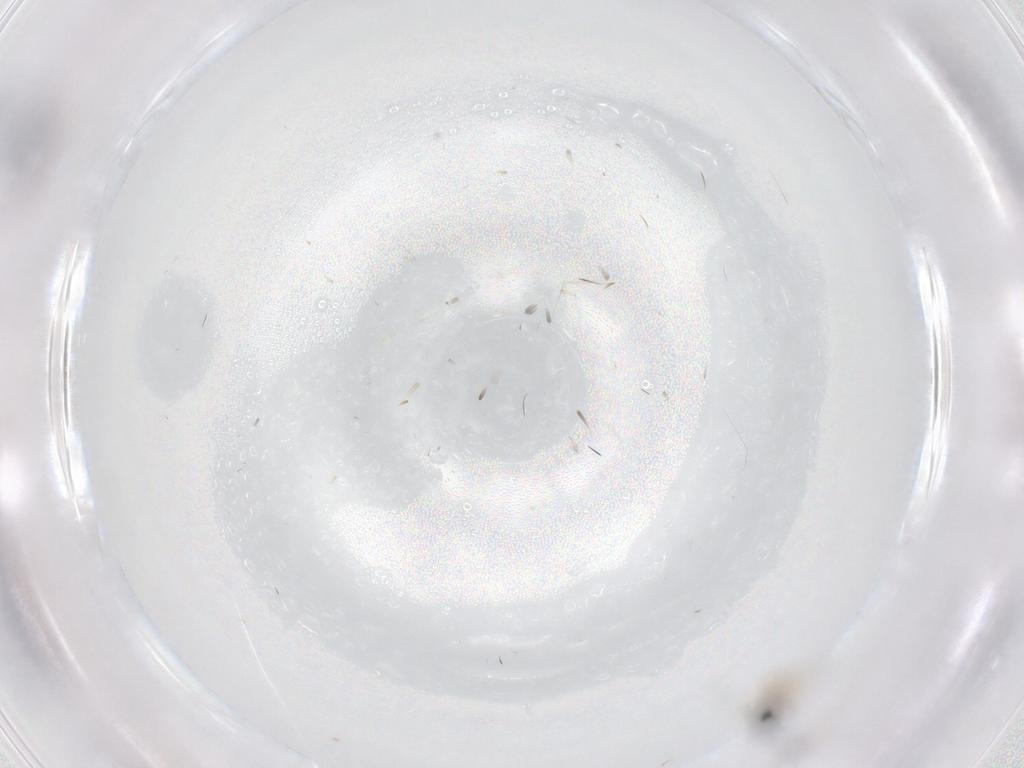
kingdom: Animalia
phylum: Arthropoda
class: Insecta
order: Diptera
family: Cecidomyiidae
